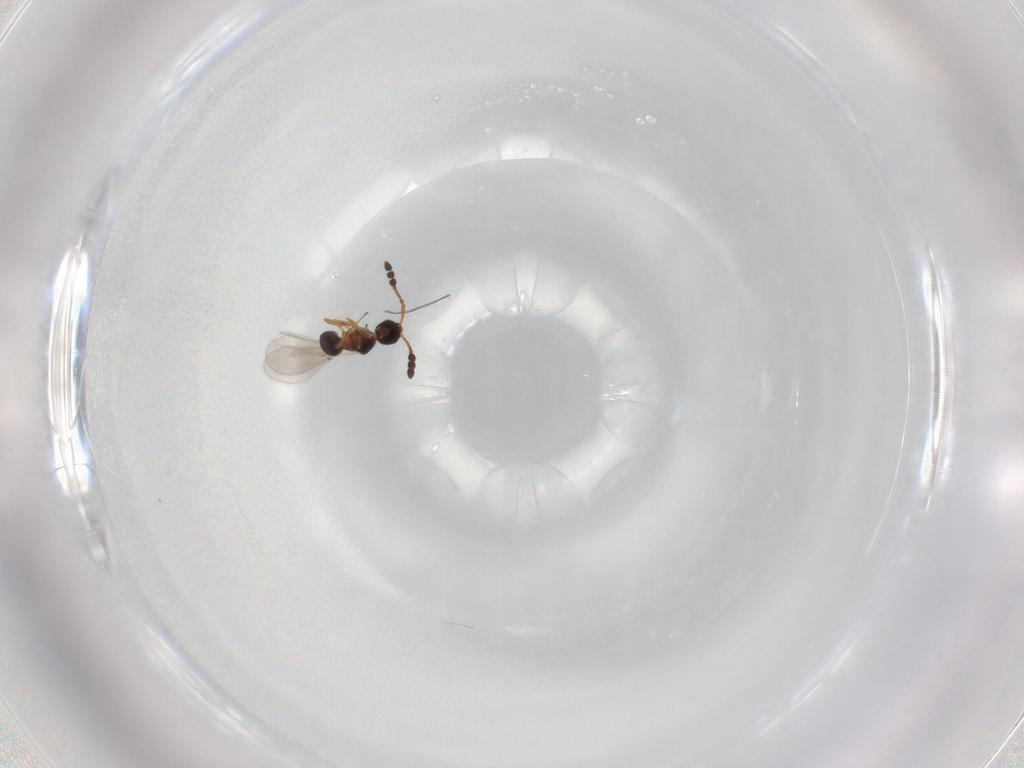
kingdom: Animalia
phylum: Arthropoda
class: Insecta
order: Hymenoptera
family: Diapriidae
